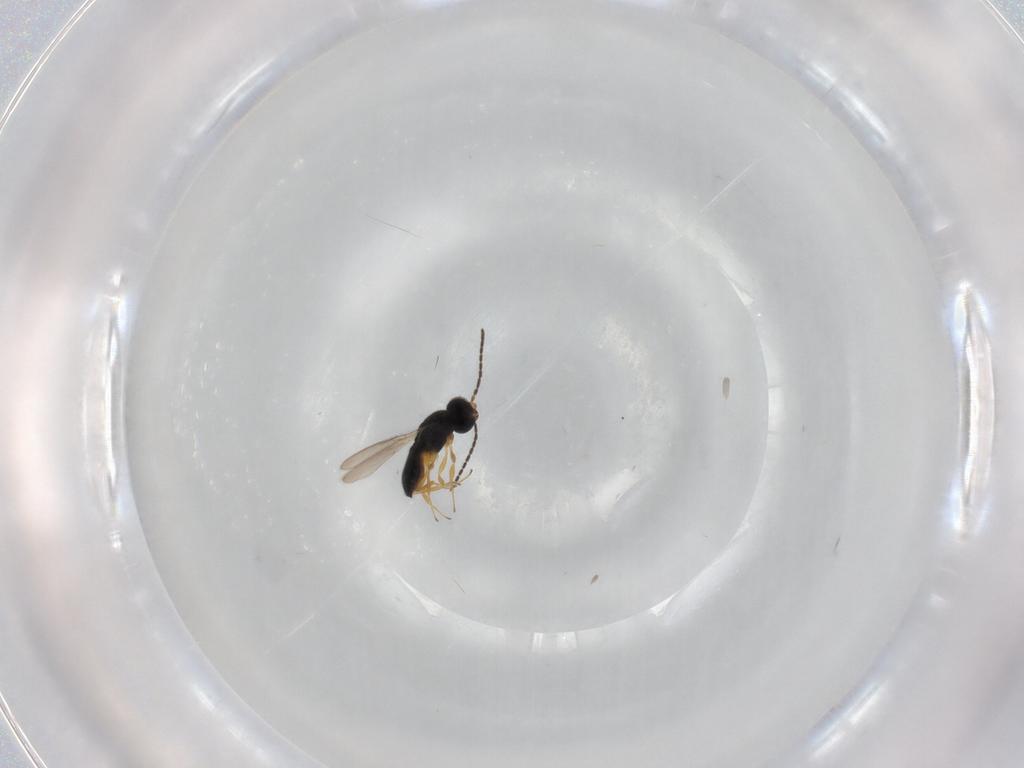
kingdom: Animalia
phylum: Arthropoda
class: Insecta
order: Hymenoptera
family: Scelionidae
